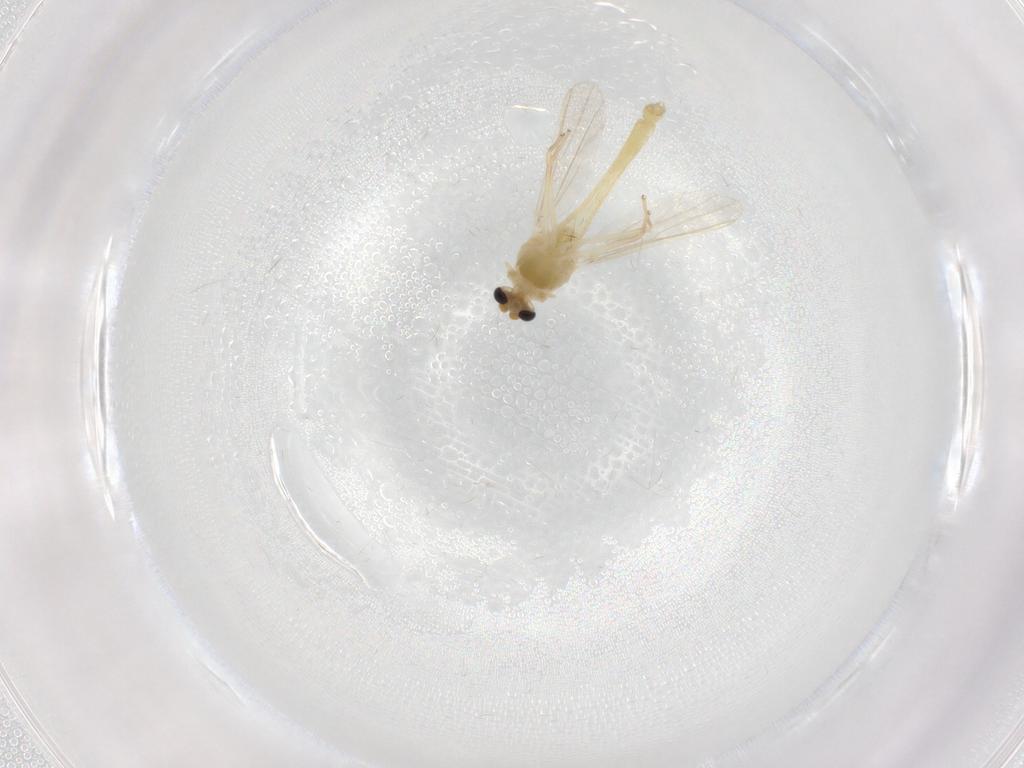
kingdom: Animalia
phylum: Arthropoda
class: Insecta
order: Diptera
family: Chironomidae
